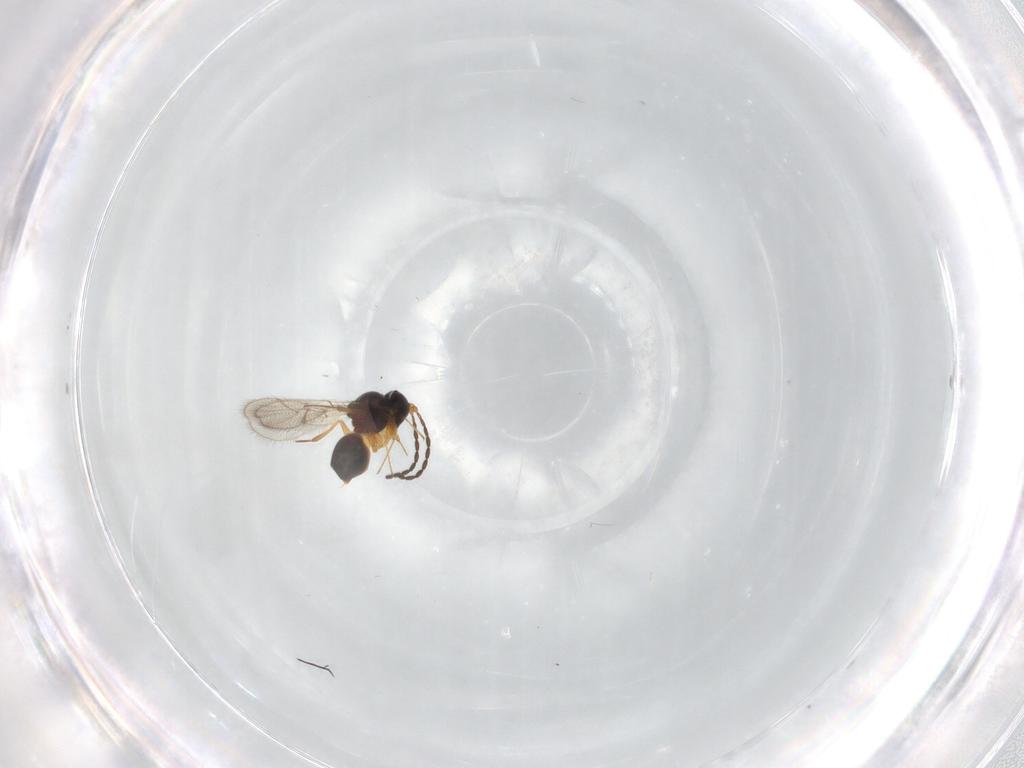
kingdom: Animalia
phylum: Arthropoda
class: Insecta
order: Hymenoptera
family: Figitidae
